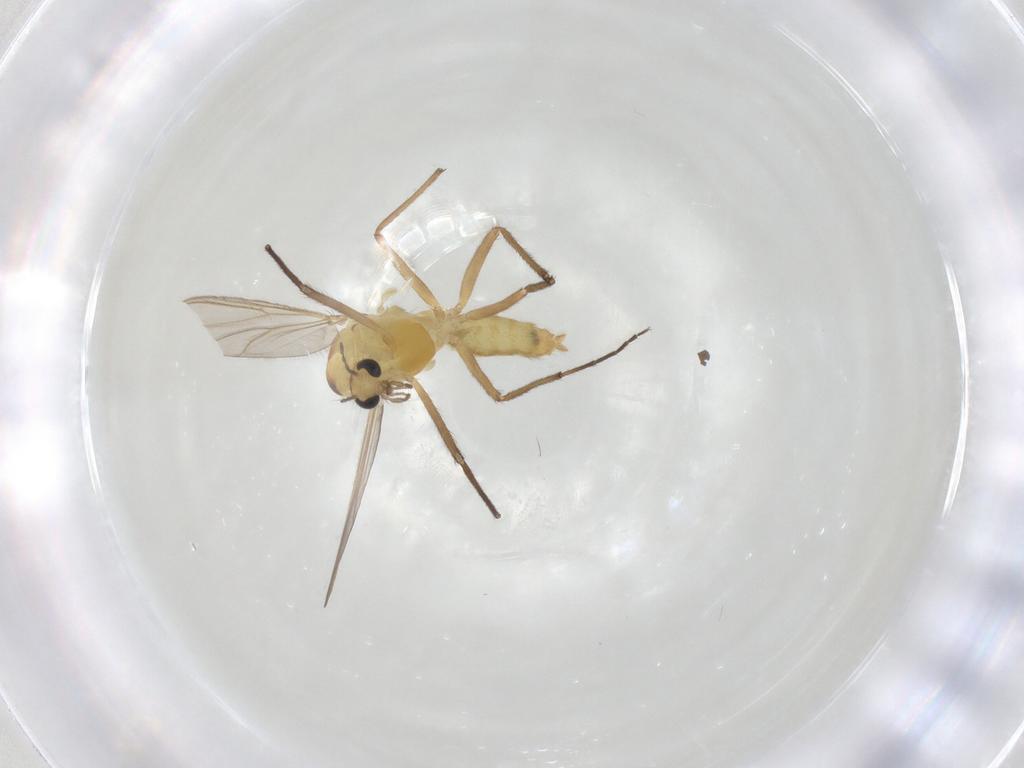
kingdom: Animalia
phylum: Arthropoda
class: Insecta
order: Diptera
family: Chironomidae
